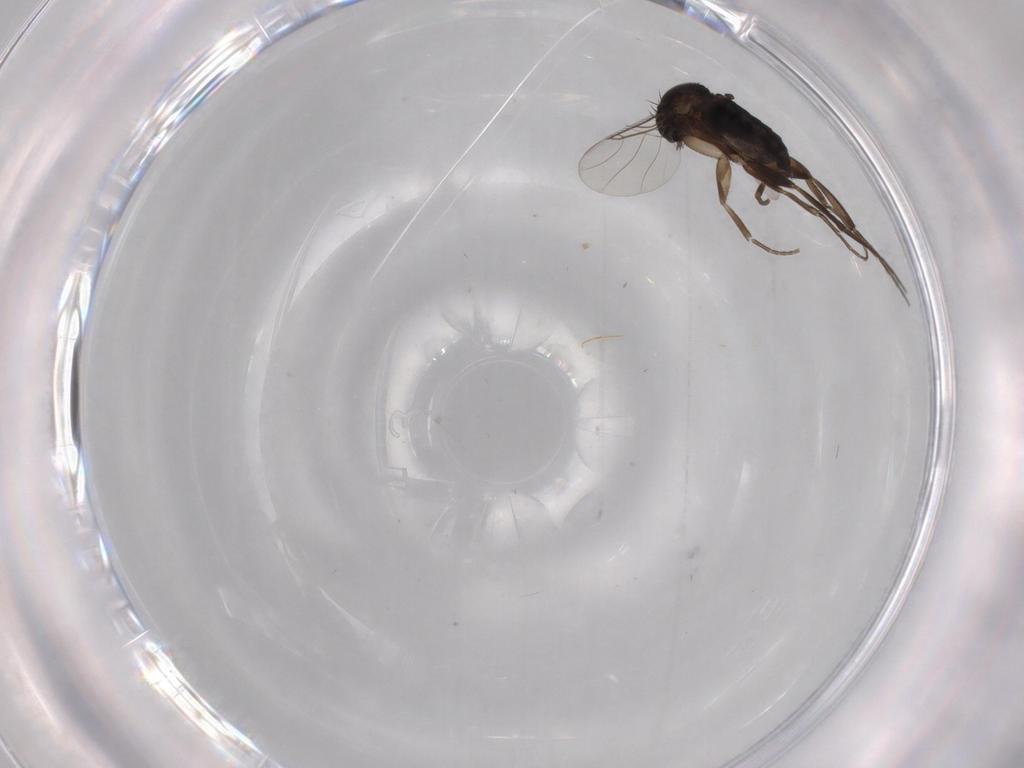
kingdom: Animalia
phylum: Arthropoda
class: Insecta
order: Diptera
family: Phoridae
